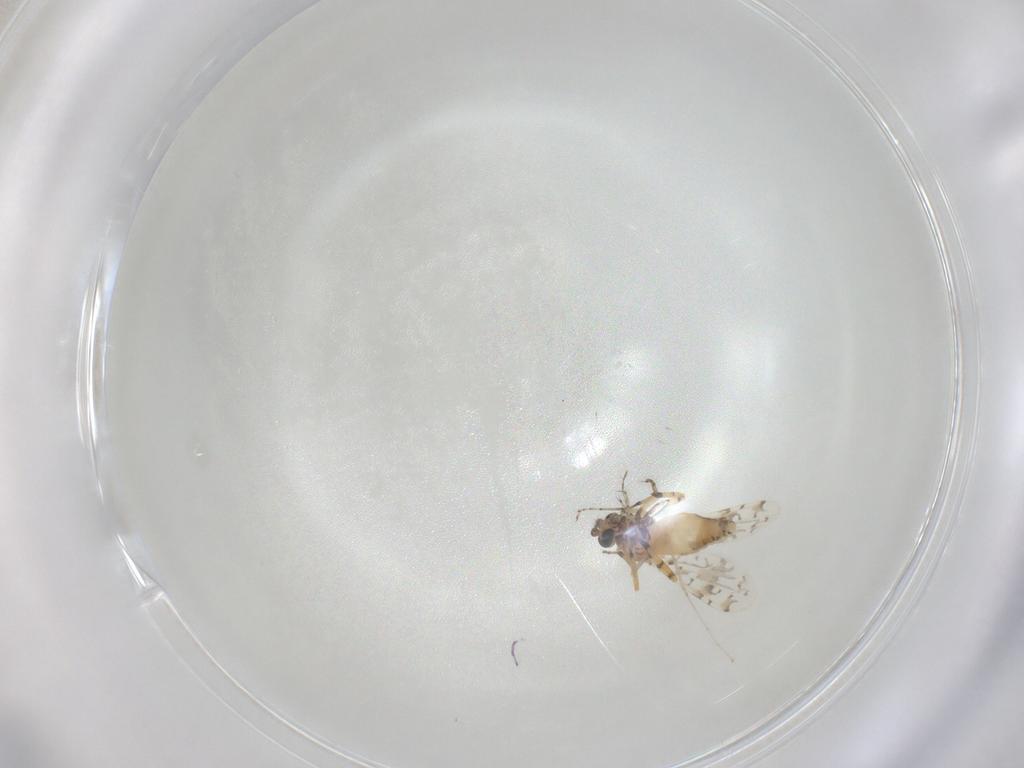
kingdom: Animalia
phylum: Arthropoda
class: Insecta
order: Diptera
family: Ceratopogonidae
